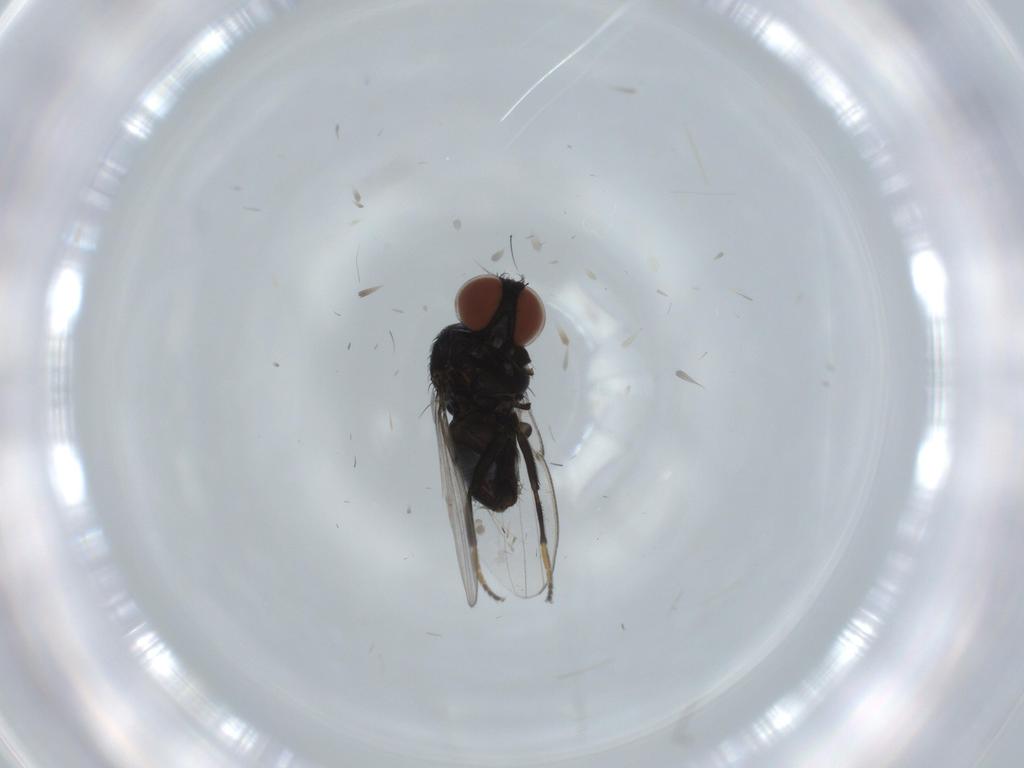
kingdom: Animalia
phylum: Arthropoda
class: Insecta
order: Diptera
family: Milichiidae
